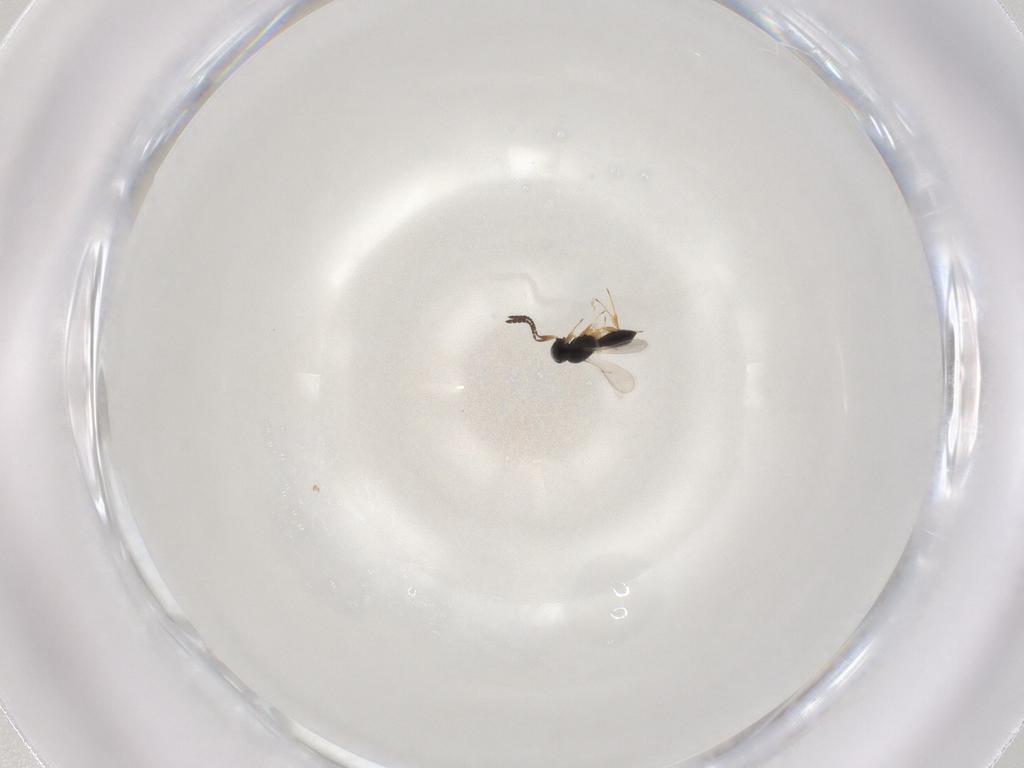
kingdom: Animalia
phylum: Arthropoda
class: Insecta
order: Hymenoptera
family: Scelionidae
